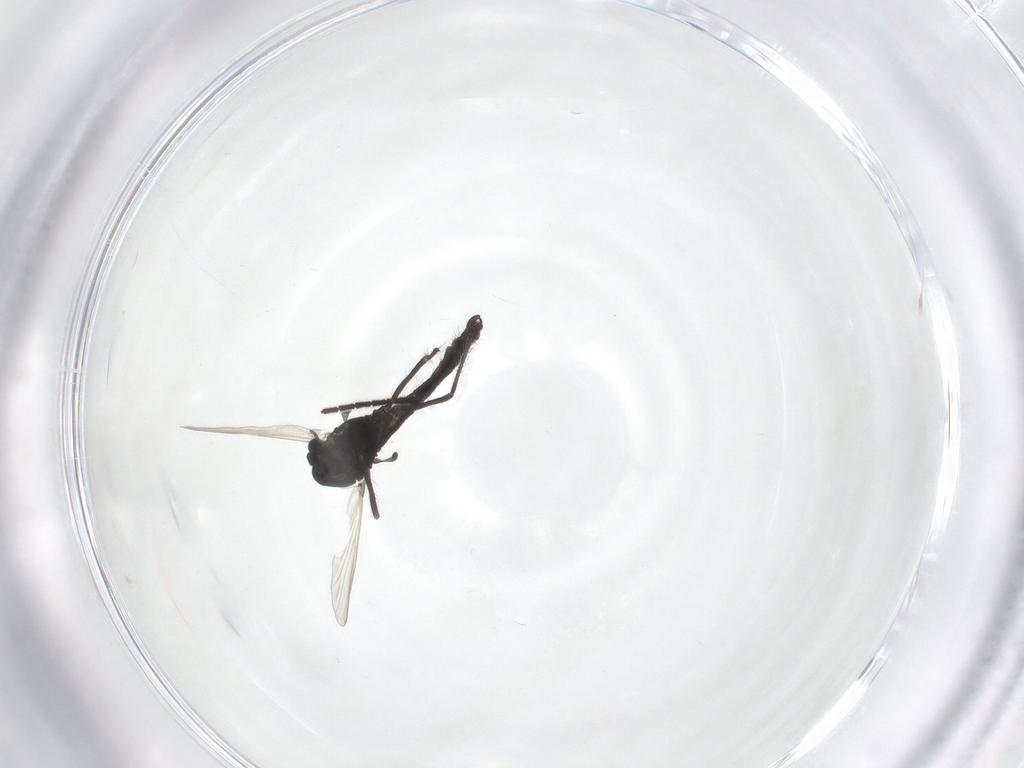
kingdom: Animalia
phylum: Arthropoda
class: Insecta
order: Diptera
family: Sciaridae
